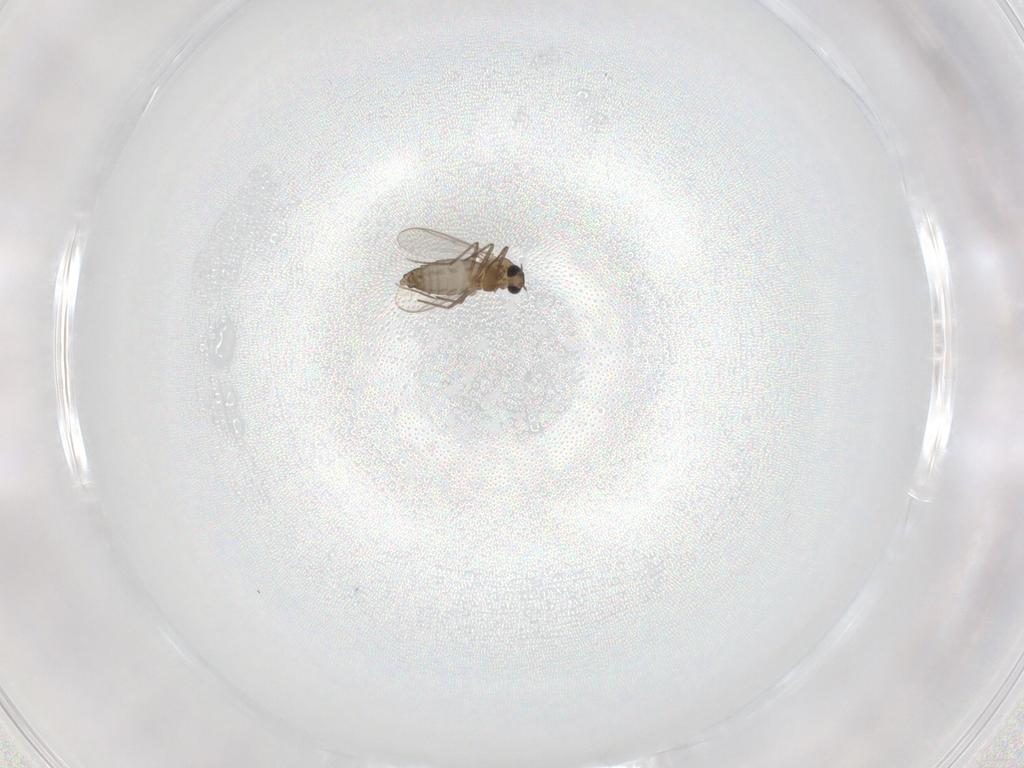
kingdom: Animalia
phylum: Arthropoda
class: Insecta
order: Diptera
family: Chironomidae
